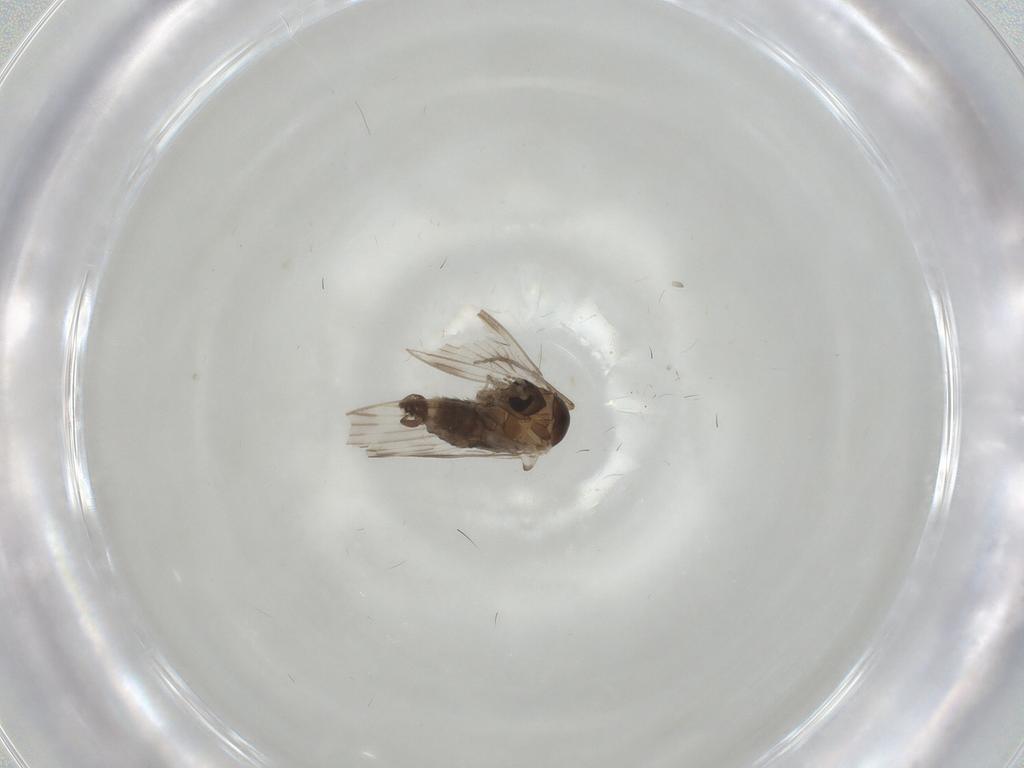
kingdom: Animalia
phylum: Arthropoda
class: Insecta
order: Diptera
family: Psychodidae
